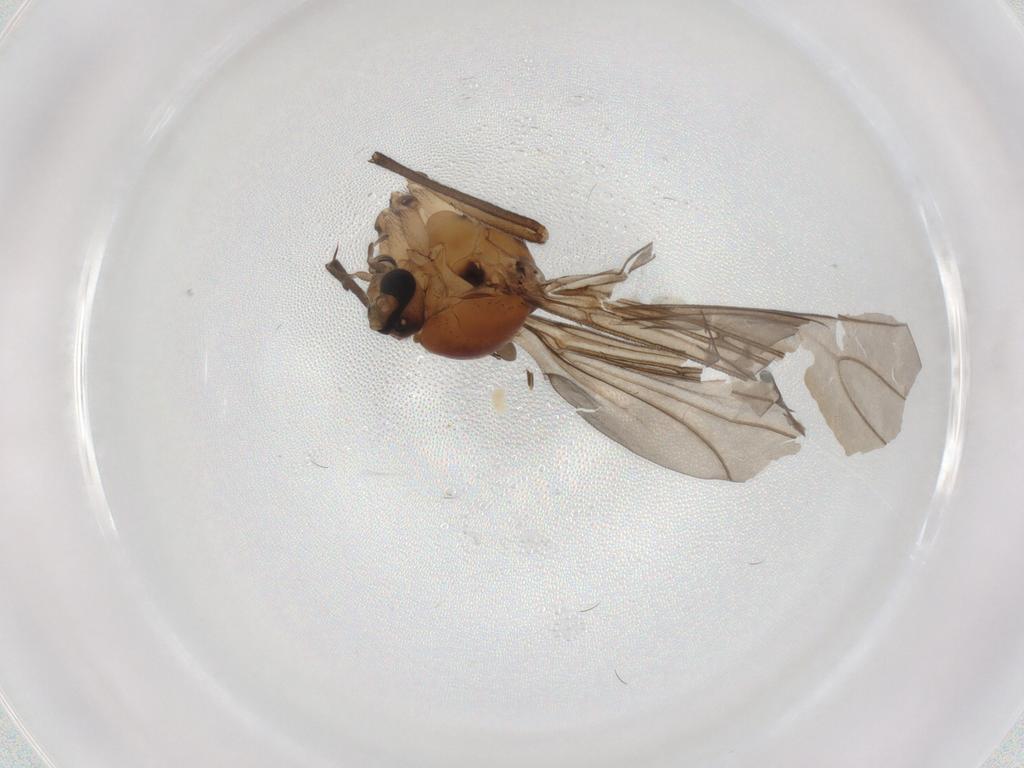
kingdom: Animalia
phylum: Arthropoda
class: Insecta
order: Diptera
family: Sciaridae
